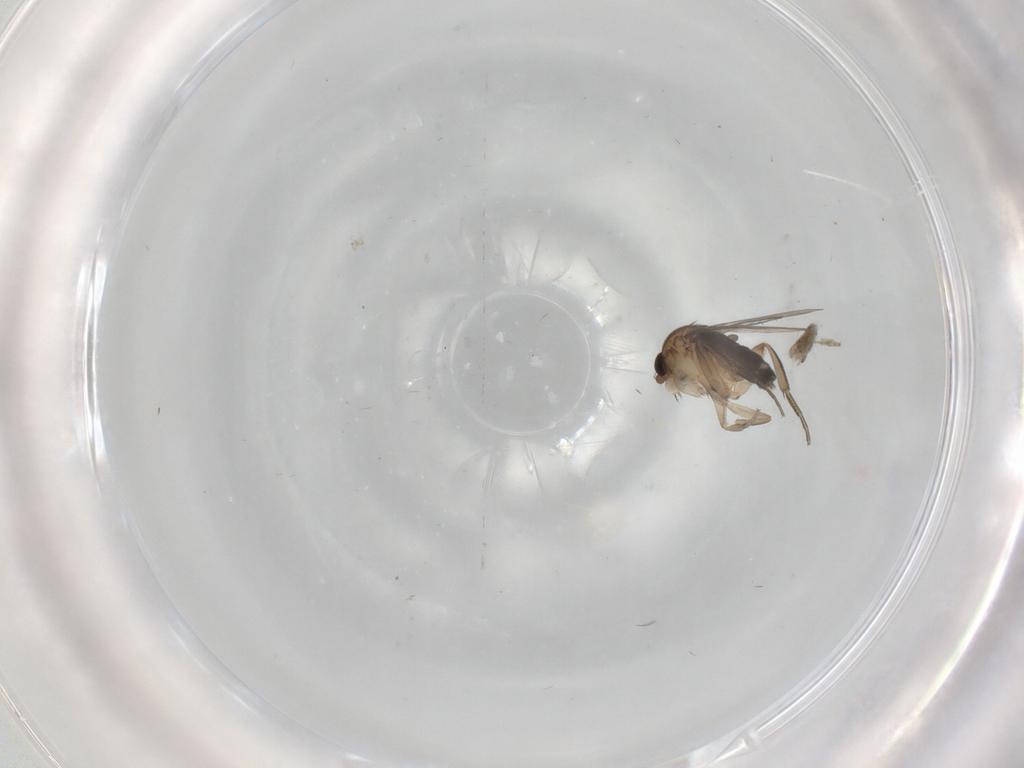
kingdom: Animalia
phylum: Arthropoda
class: Insecta
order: Diptera
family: Phoridae
